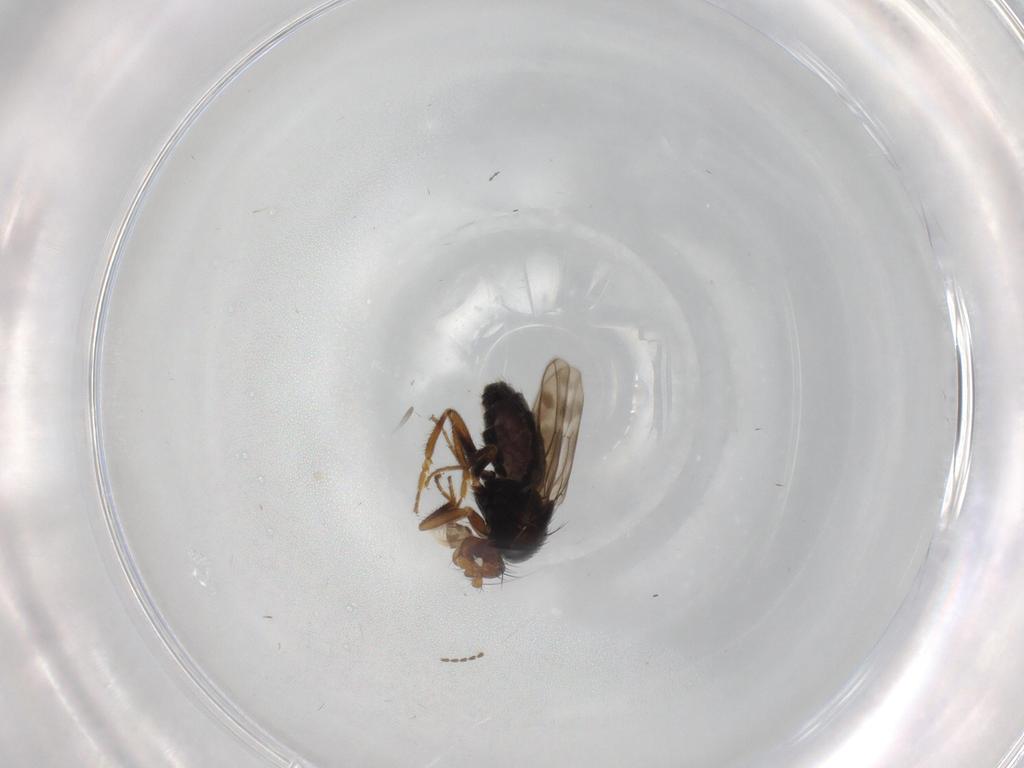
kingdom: Animalia
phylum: Arthropoda
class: Insecta
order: Diptera
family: Sphaeroceridae
